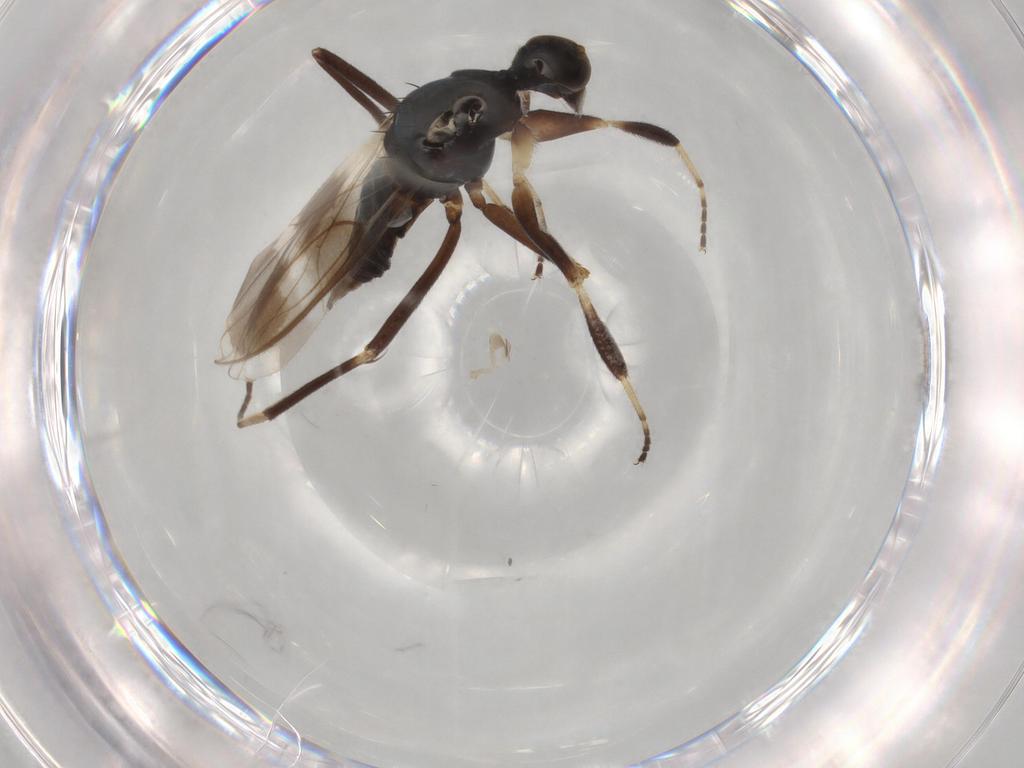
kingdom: Animalia
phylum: Arthropoda
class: Insecta
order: Diptera
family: Hybotidae
